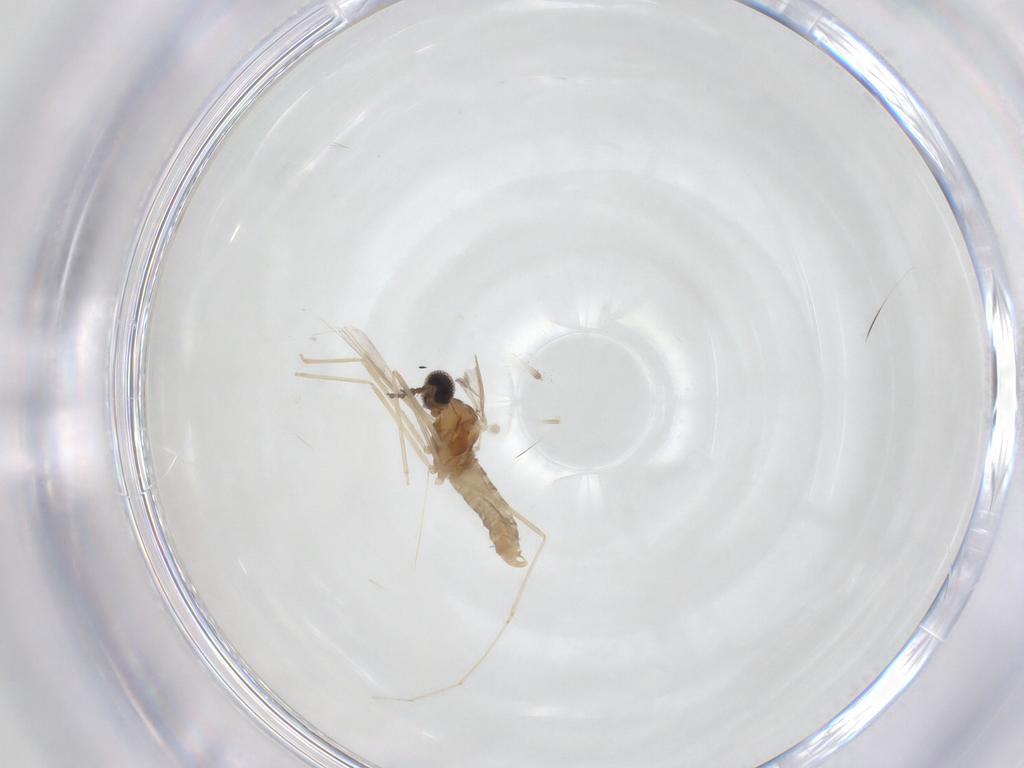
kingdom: Animalia
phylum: Arthropoda
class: Insecta
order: Diptera
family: Cecidomyiidae
